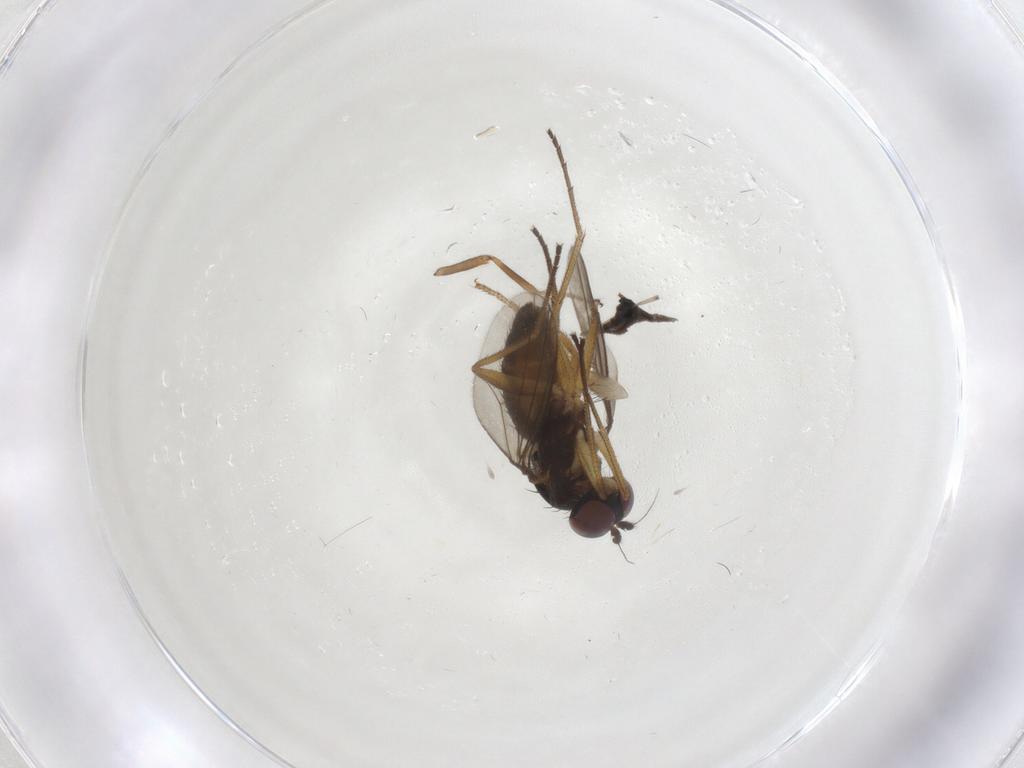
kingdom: Animalia
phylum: Arthropoda
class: Insecta
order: Diptera
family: Dolichopodidae
